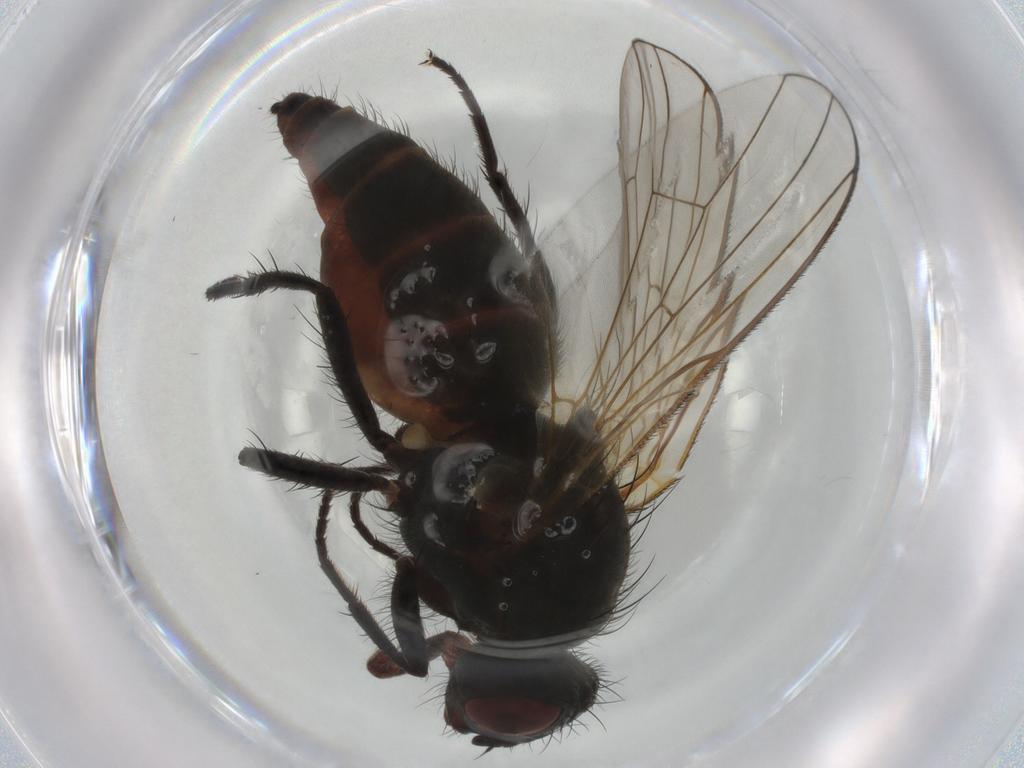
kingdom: Animalia
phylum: Arthropoda
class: Insecta
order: Diptera
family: Anthomyiidae
